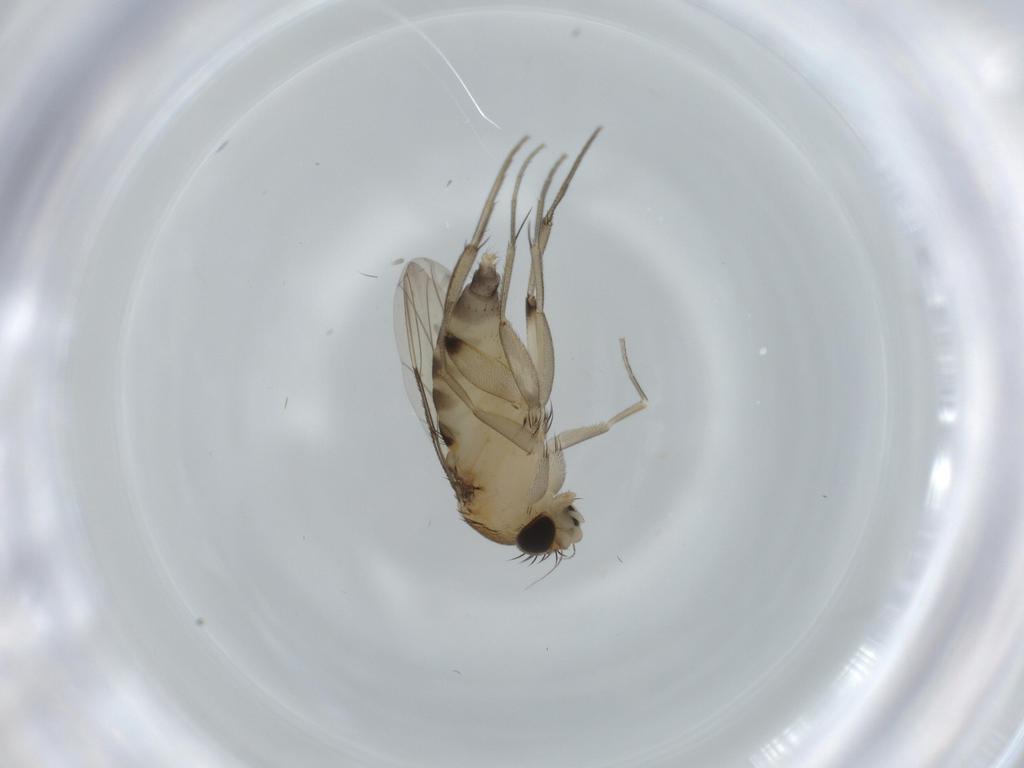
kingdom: Animalia
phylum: Arthropoda
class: Insecta
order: Diptera
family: Phoridae
